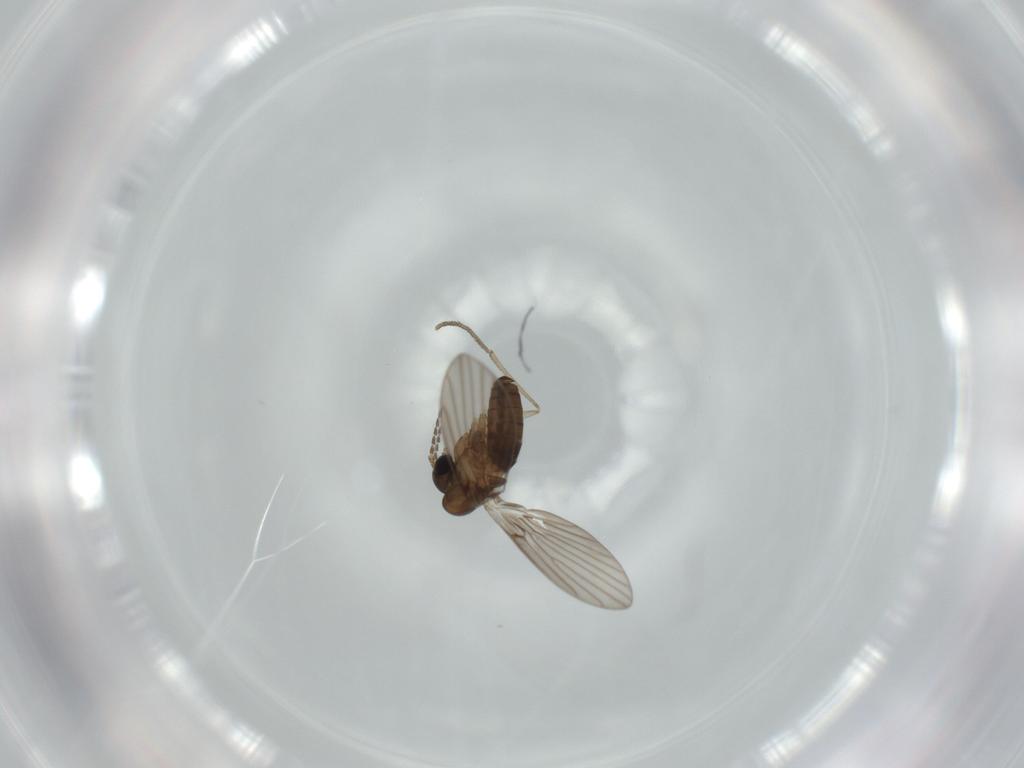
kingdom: Animalia
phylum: Arthropoda
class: Insecta
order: Diptera
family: Psychodidae
